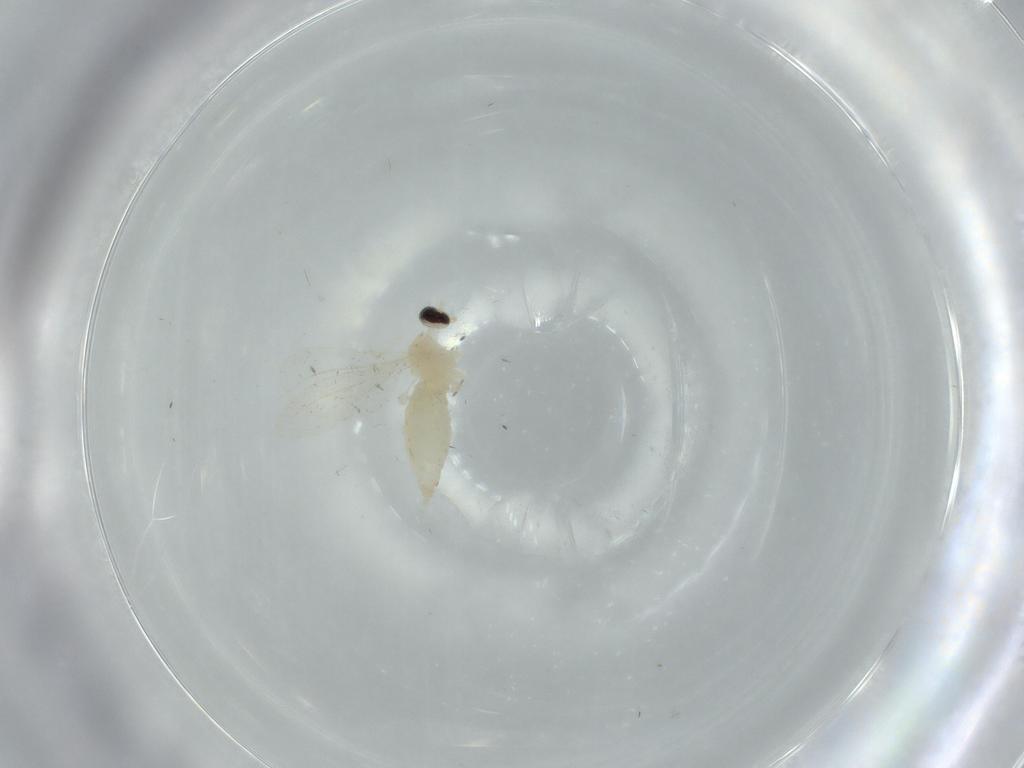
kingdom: Animalia
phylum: Arthropoda
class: Insecta
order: Diptera
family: Cecidomyiidae
